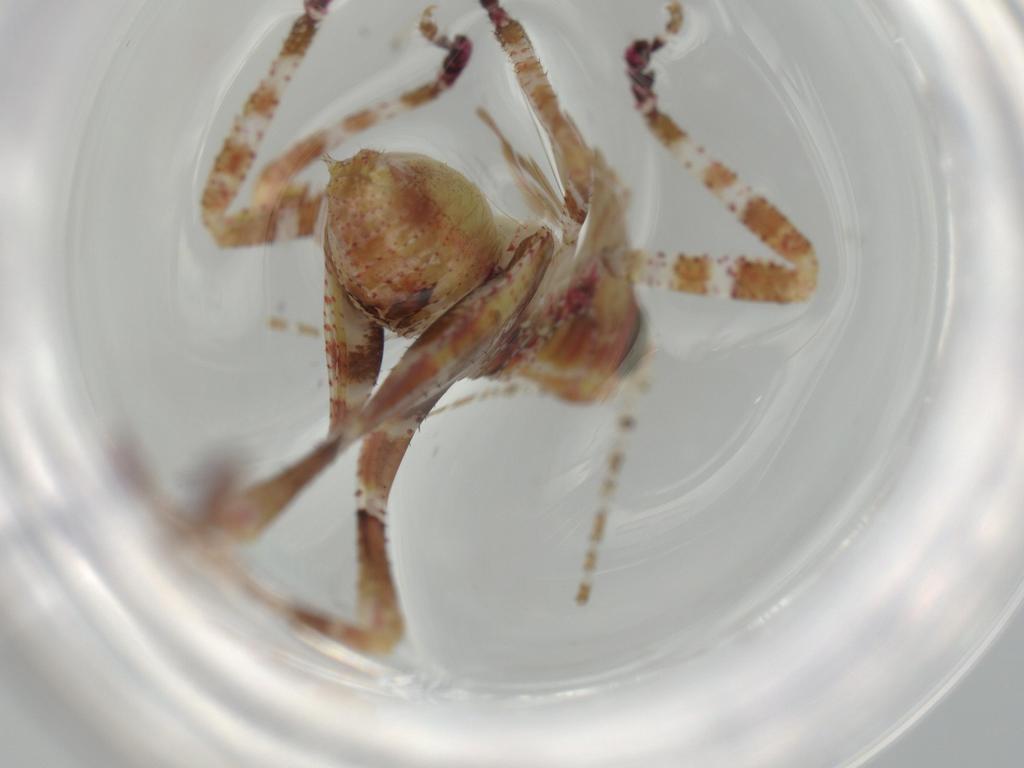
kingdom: Animalia
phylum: Arthropoda
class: Insecta
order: Orthoptera
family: Tettigoniidae
